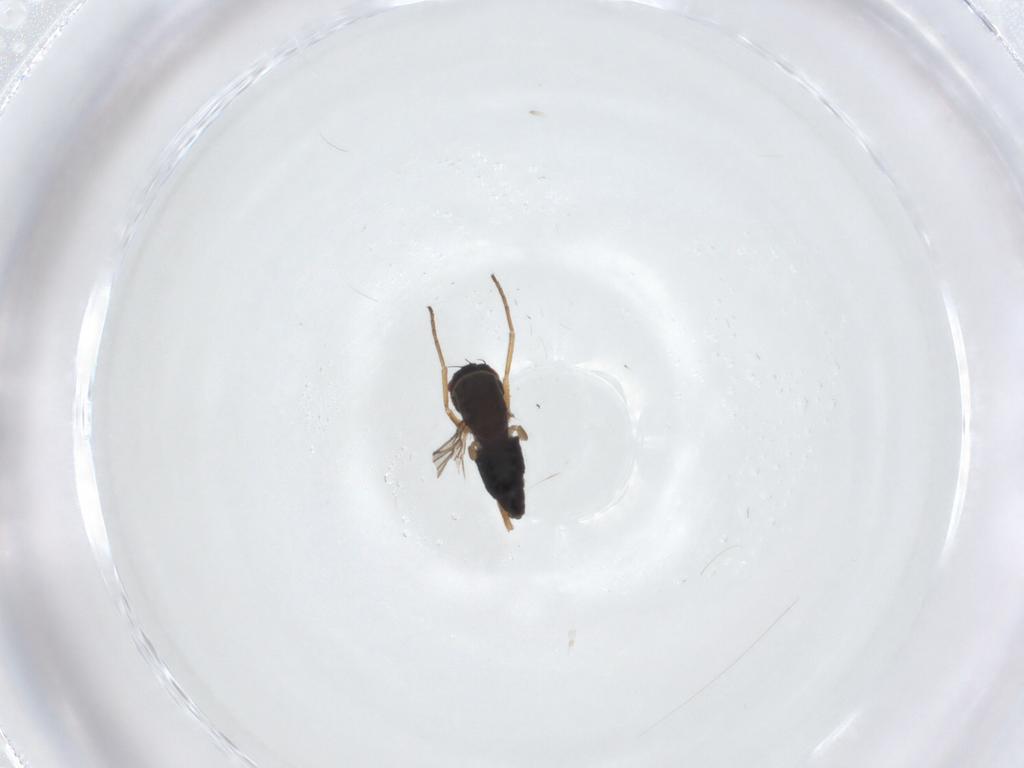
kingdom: Animalia
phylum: Arthropoda
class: Insecta
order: Diptera
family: Dolichopodidae
